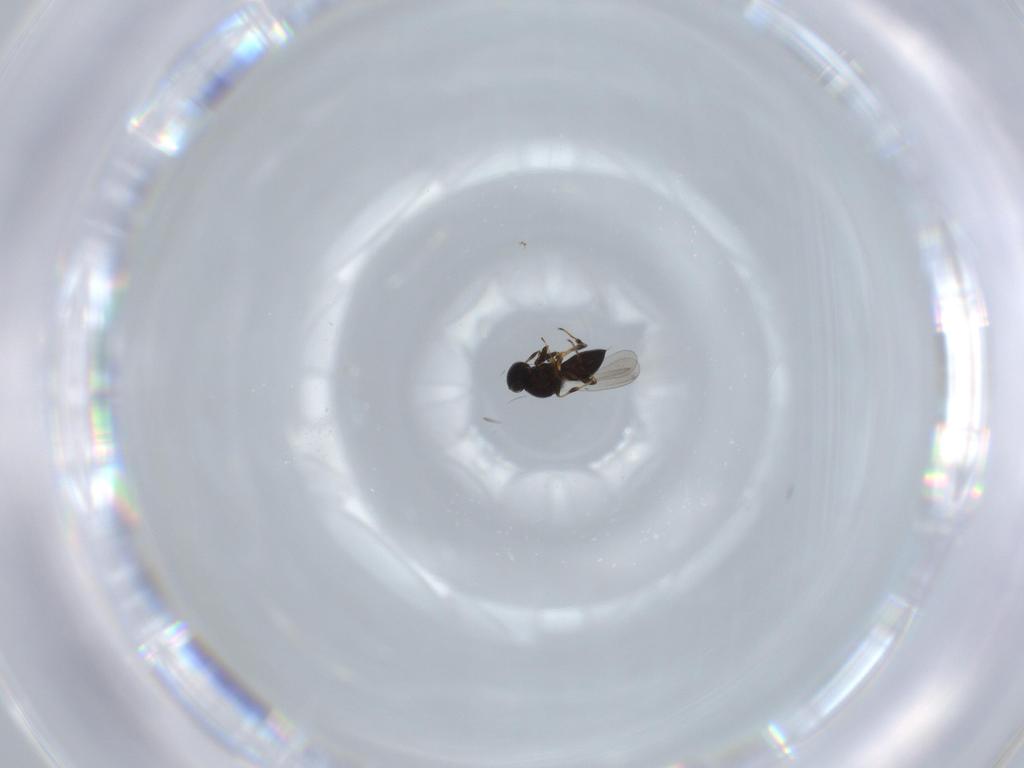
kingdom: Animalia
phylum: Arthropoda
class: Insecta
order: Hymenoptera
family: Platygastridae
